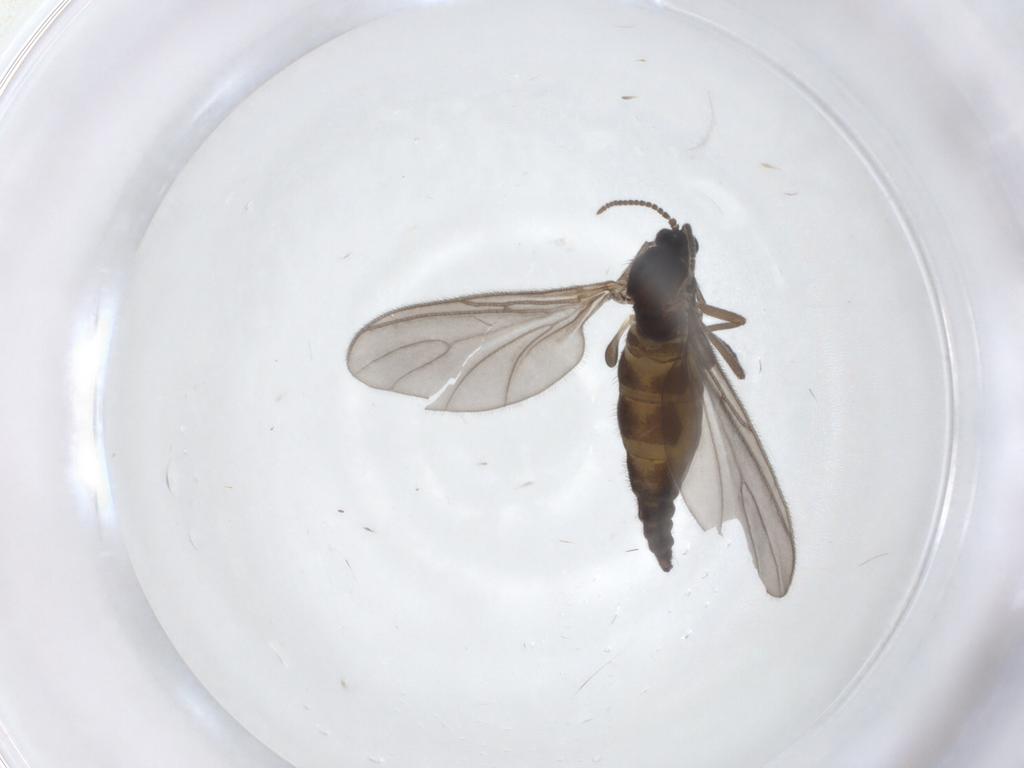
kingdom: Animalia
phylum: Arthropoda
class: Insecta
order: Diptera
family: Sciaridae
